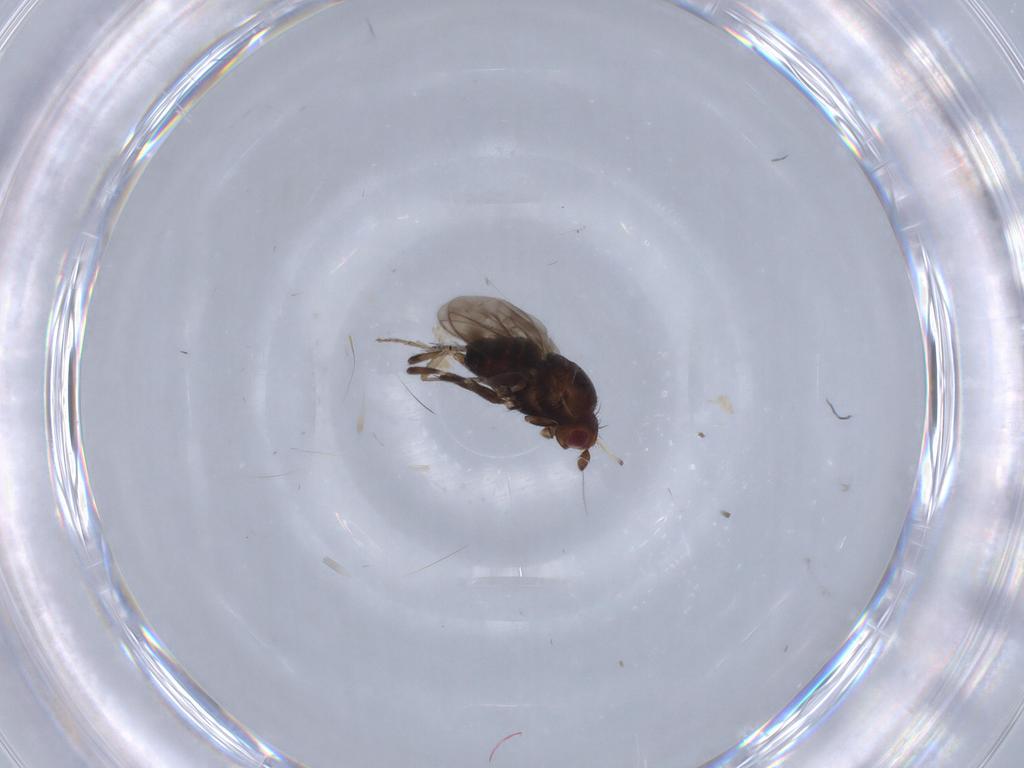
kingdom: Animalia
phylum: Arthropoda
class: Insecta
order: Diptera
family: Sphaeroceridae
